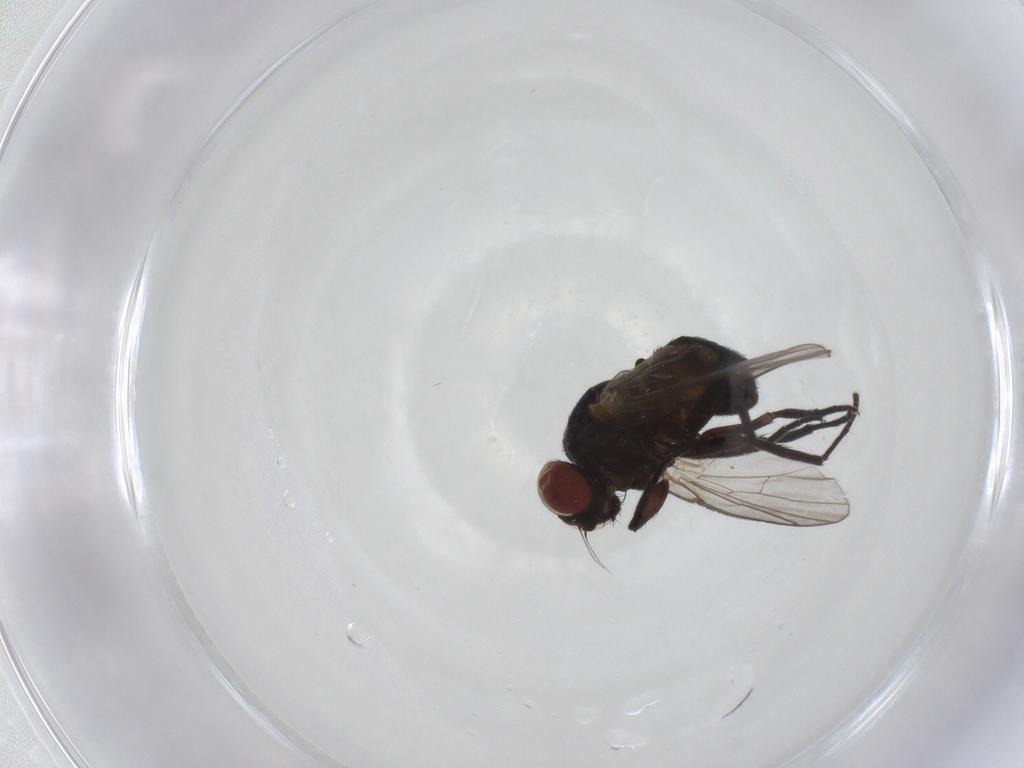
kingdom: Animalia
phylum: Arthropoda
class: Insecta
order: Diptera
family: Agromyzidae
